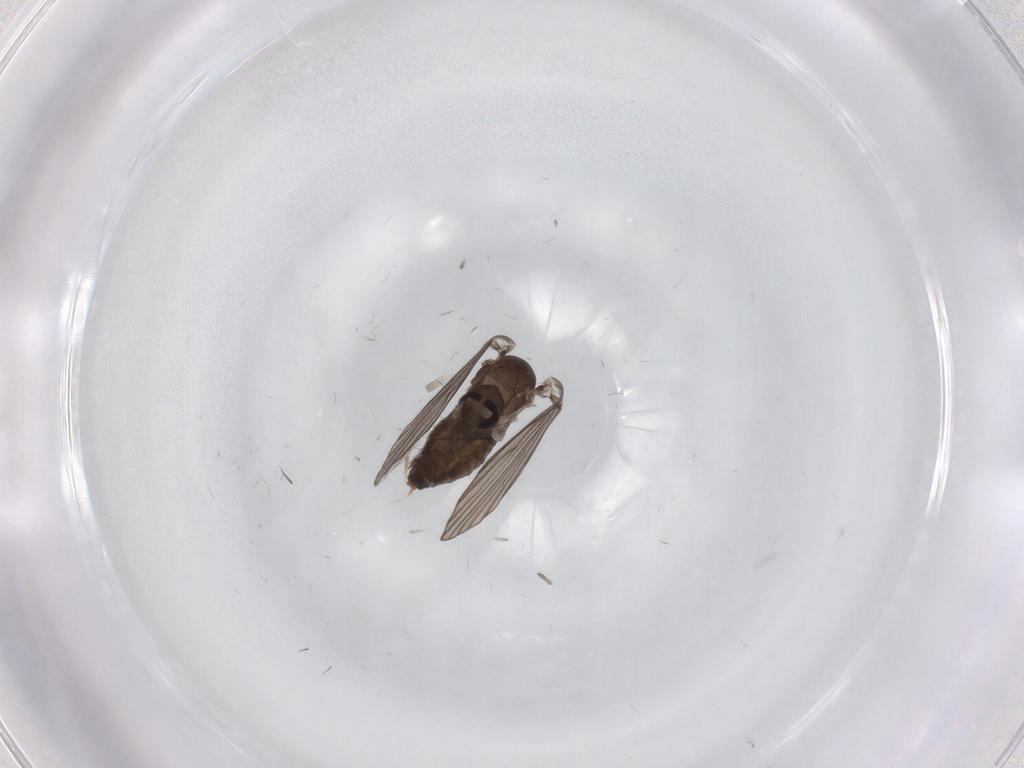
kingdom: Animalia
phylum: Arthropoda
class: Insecta
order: Diptera
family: Psychodidae
